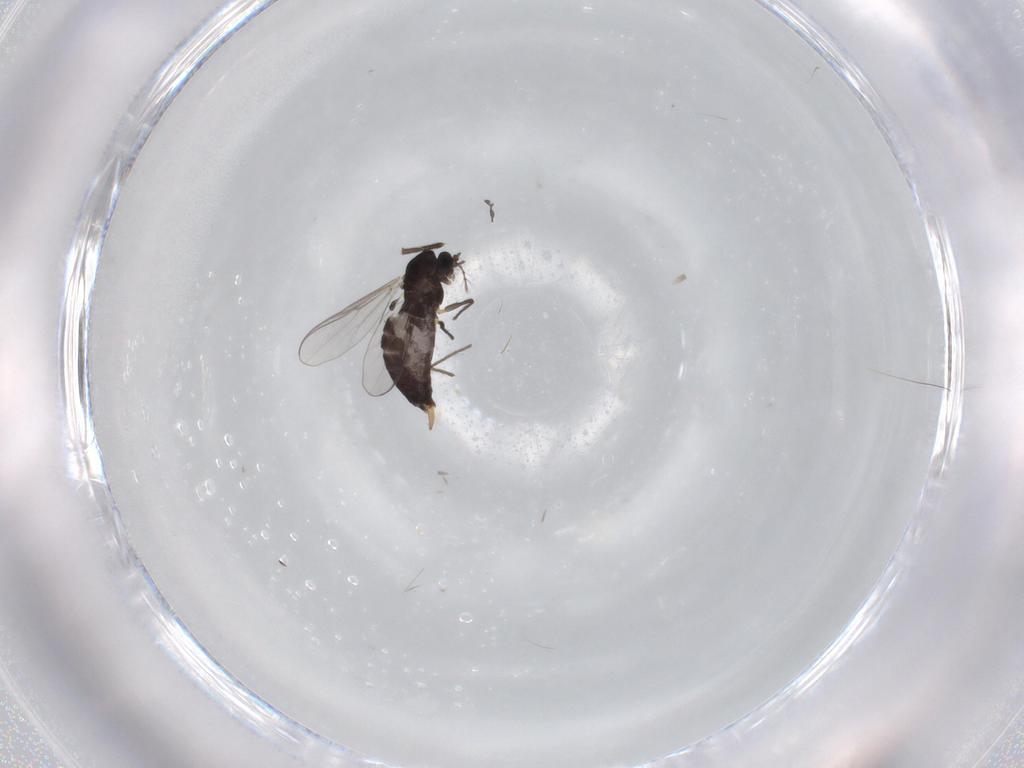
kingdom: Animalia
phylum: Arthropoda
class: Insecta
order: Diptera
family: Chironomidae
